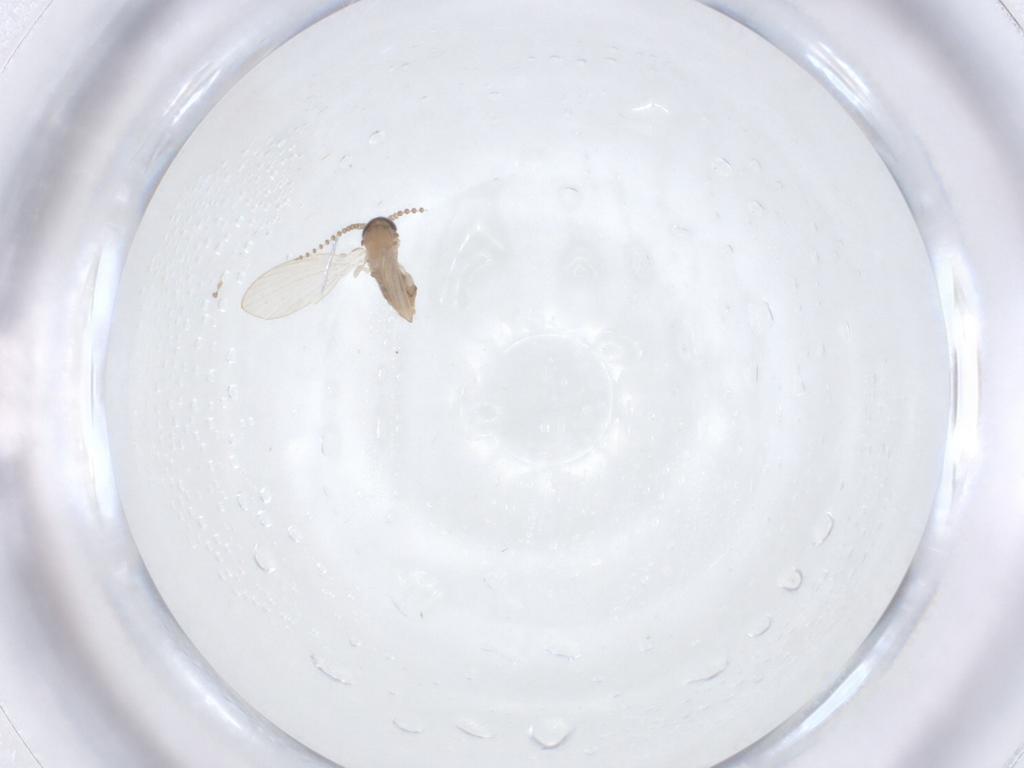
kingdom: Animalia
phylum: Arthropoda
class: Insecta
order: Diptera
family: Psychodidae
